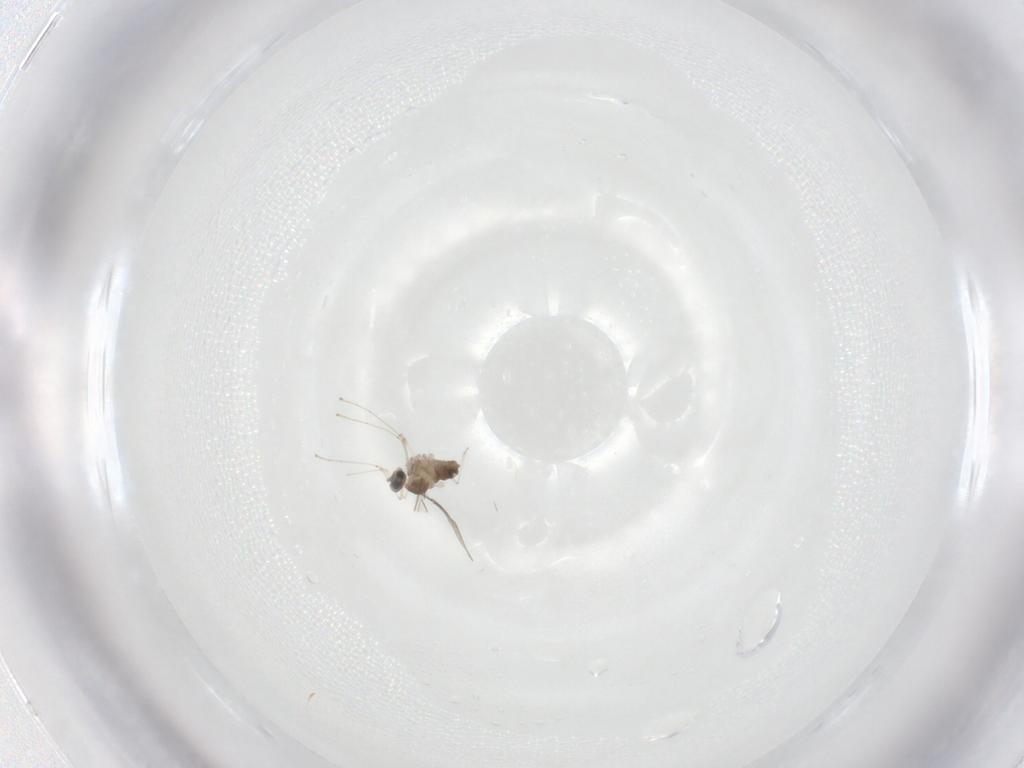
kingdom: Animalia
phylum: Arthropoda
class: Insecta
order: Diptera
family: Cecidomyiidae
